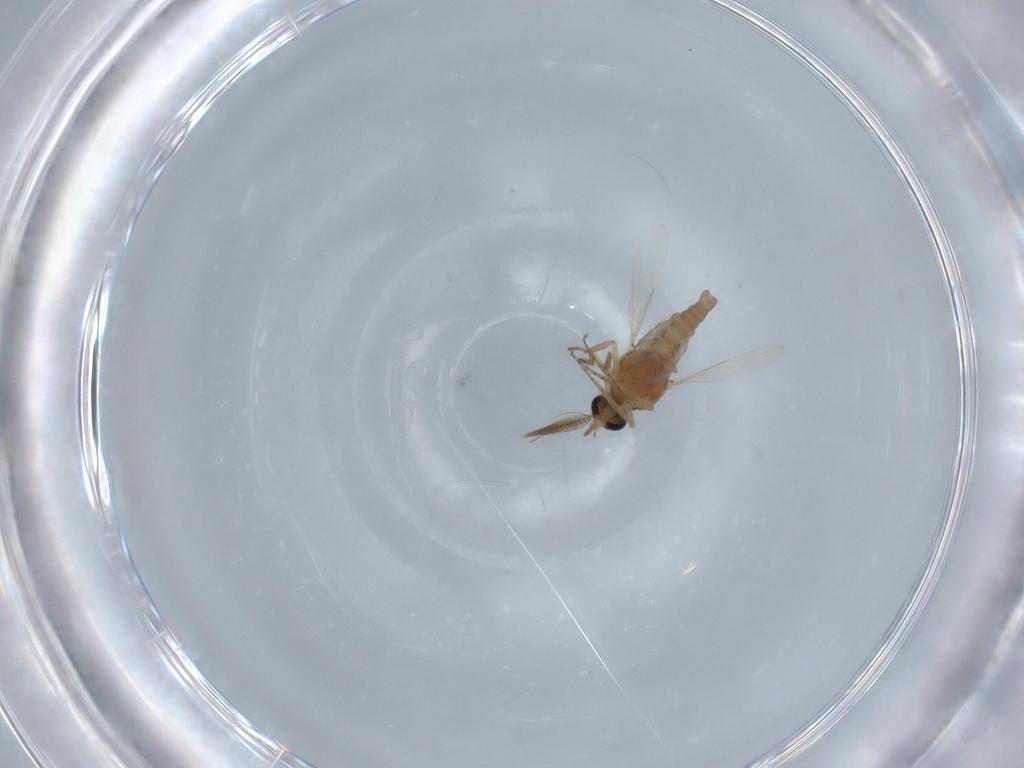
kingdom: Animalia
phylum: Arthropoda
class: Insecta
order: Diptera
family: Ceratopogonidae
